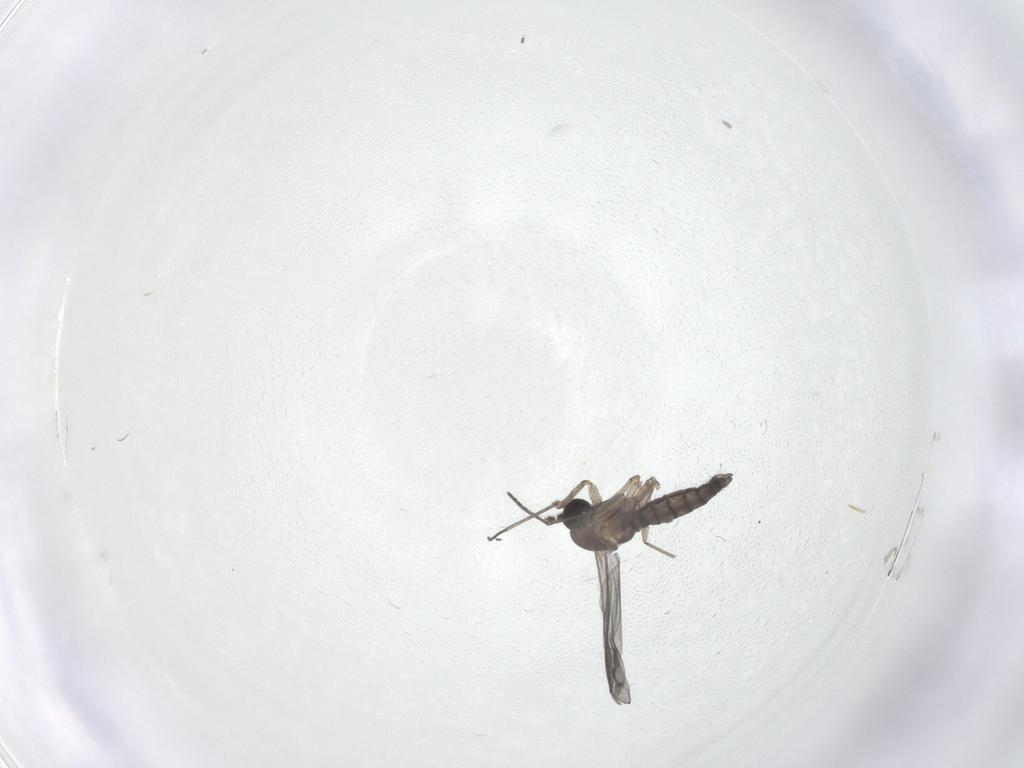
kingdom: Animalia
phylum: Arthropoda
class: Insecta
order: Diptera
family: Sciaridae
